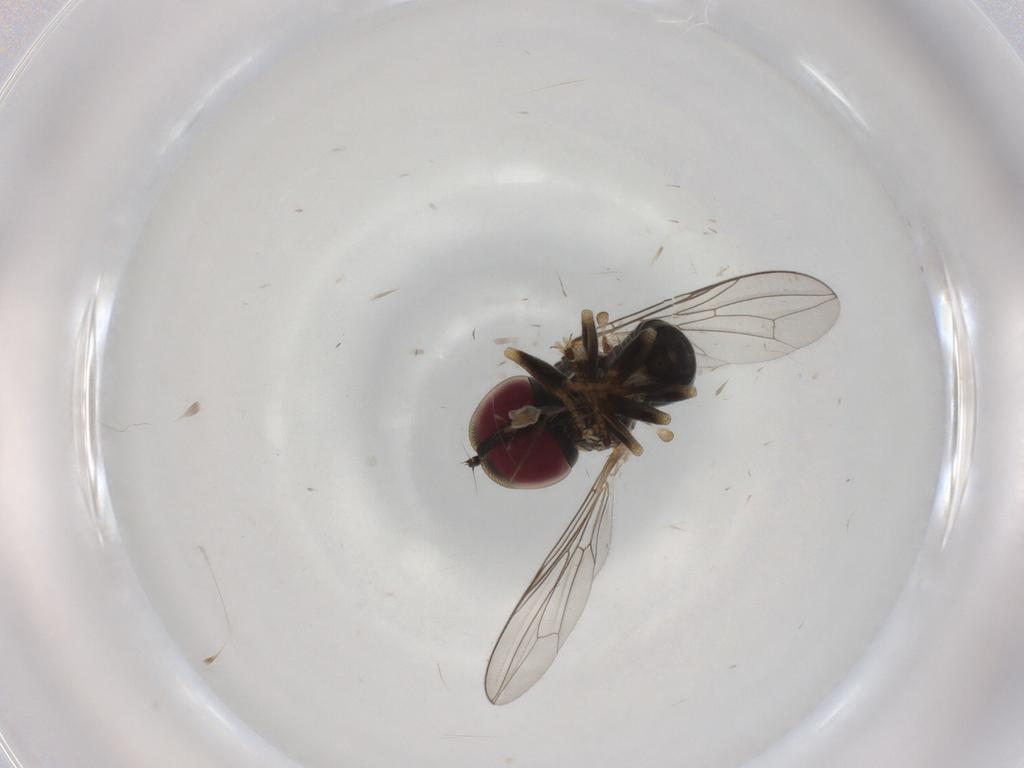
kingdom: Animalia
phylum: Arthropoda
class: Insecta
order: Diptera
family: Pipunculidae
